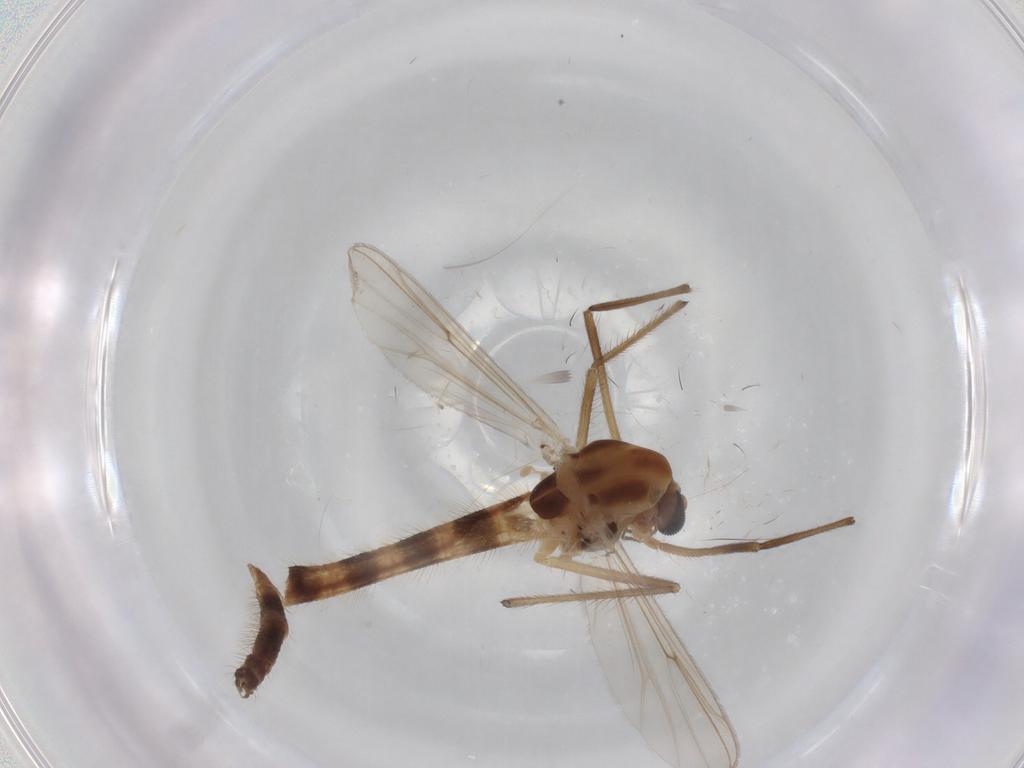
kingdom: Animalia
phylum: Arthropoda
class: Insecta
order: Diptera
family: Chironomidae
